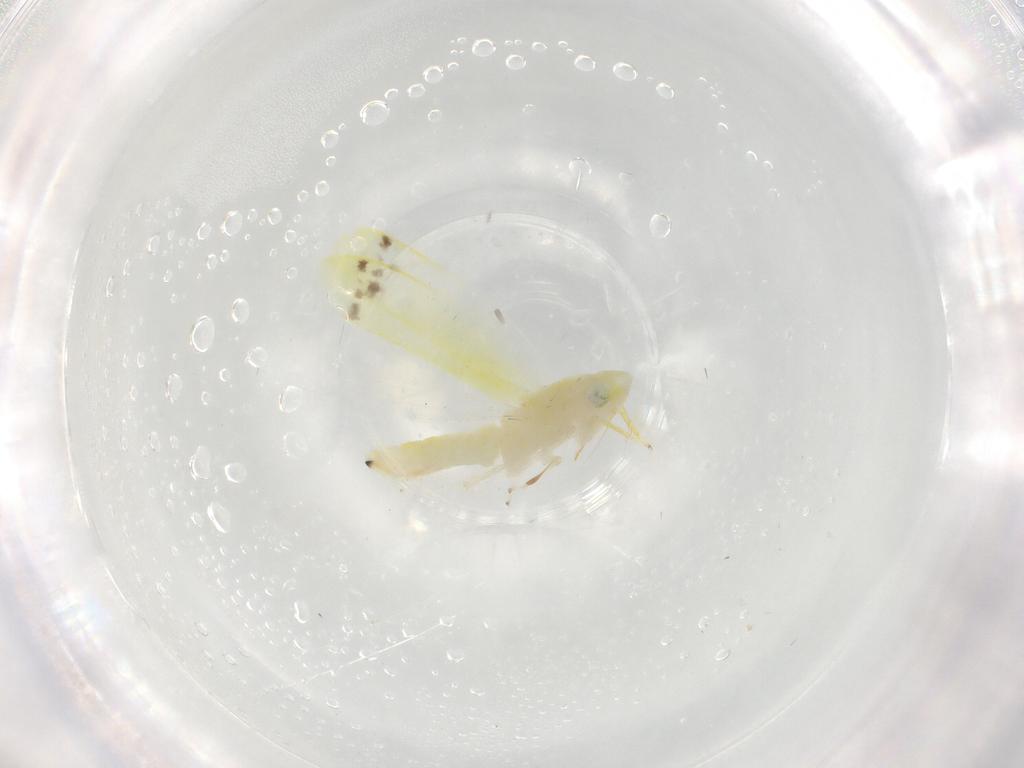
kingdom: Animalia
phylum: Arthropoda
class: Insecta
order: Hemiptera
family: Cicadellidae
